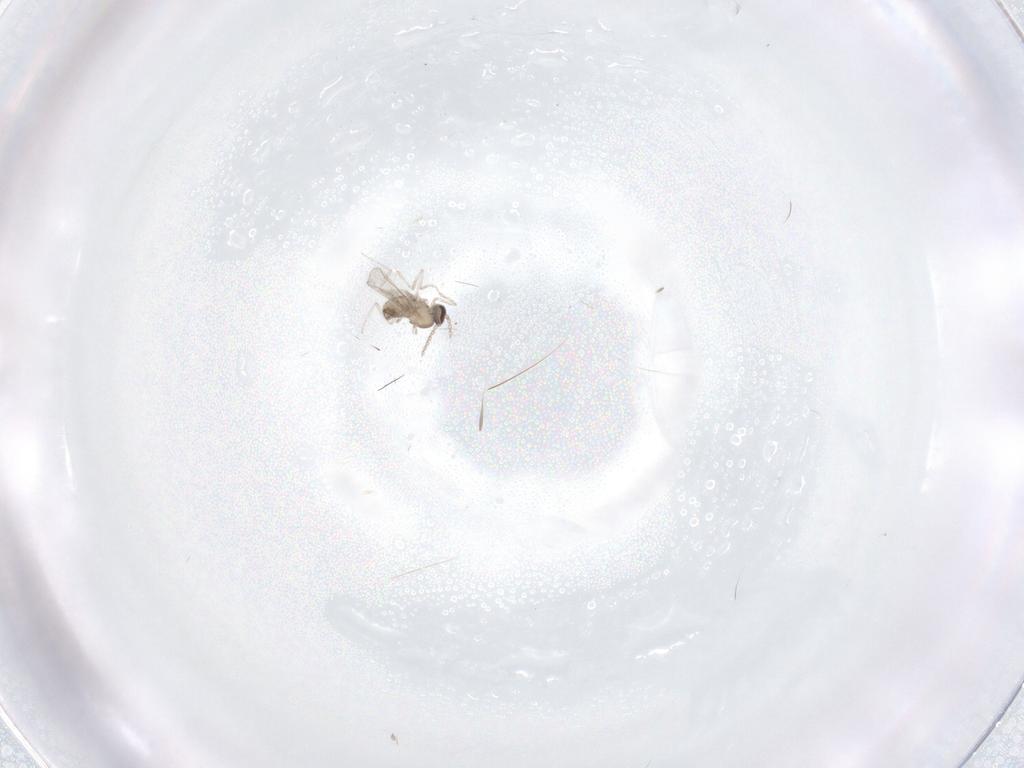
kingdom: Animalia
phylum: Arthropoda
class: Insecta
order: Diptera
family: Cecidomyiidae
